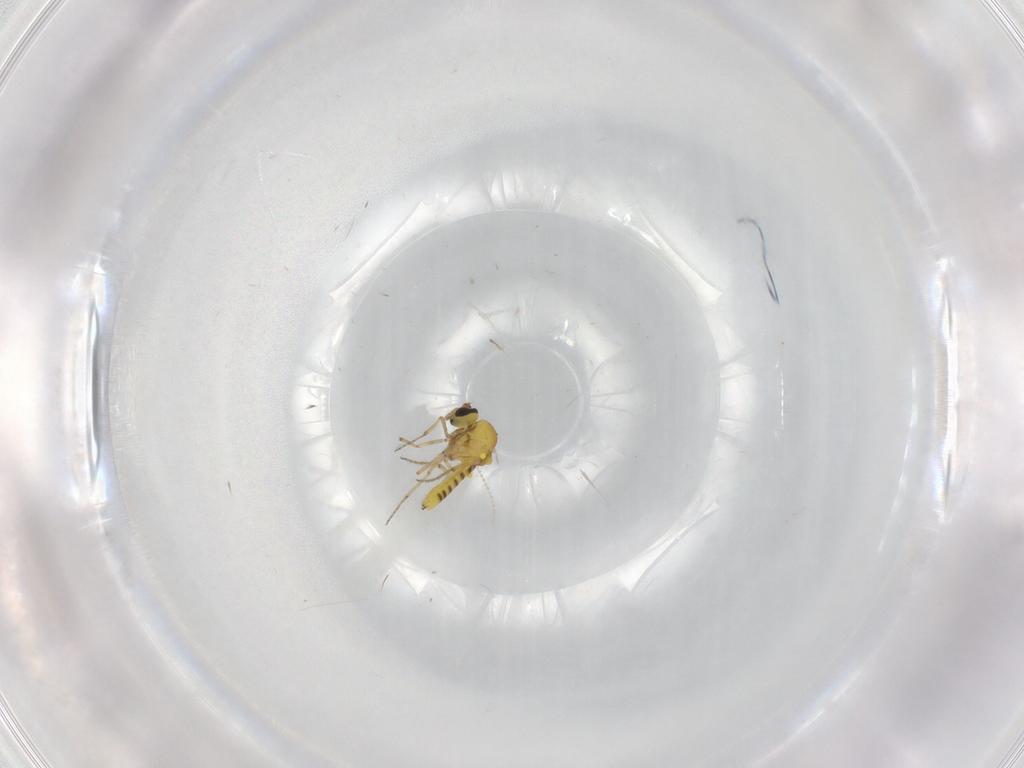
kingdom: Animalia
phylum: Arthropoda
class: Insecta
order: Diptera
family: Ceratopogonidae
